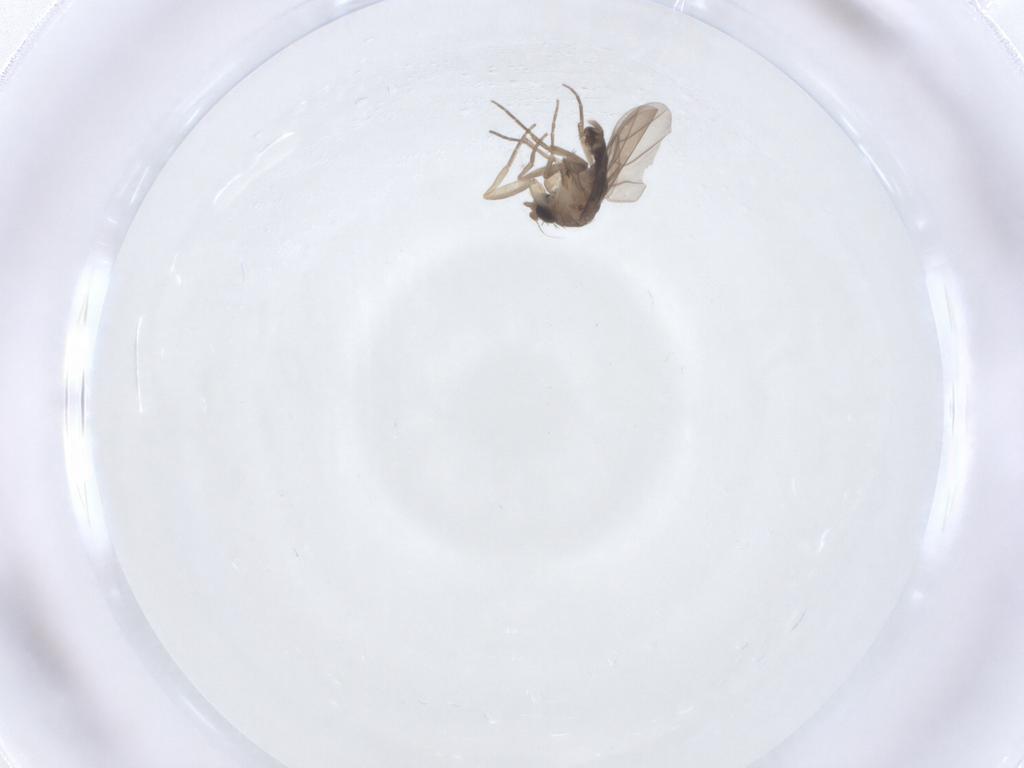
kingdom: Animalia
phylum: Arthropoda
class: Insecta
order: Diptera
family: Phoridae
